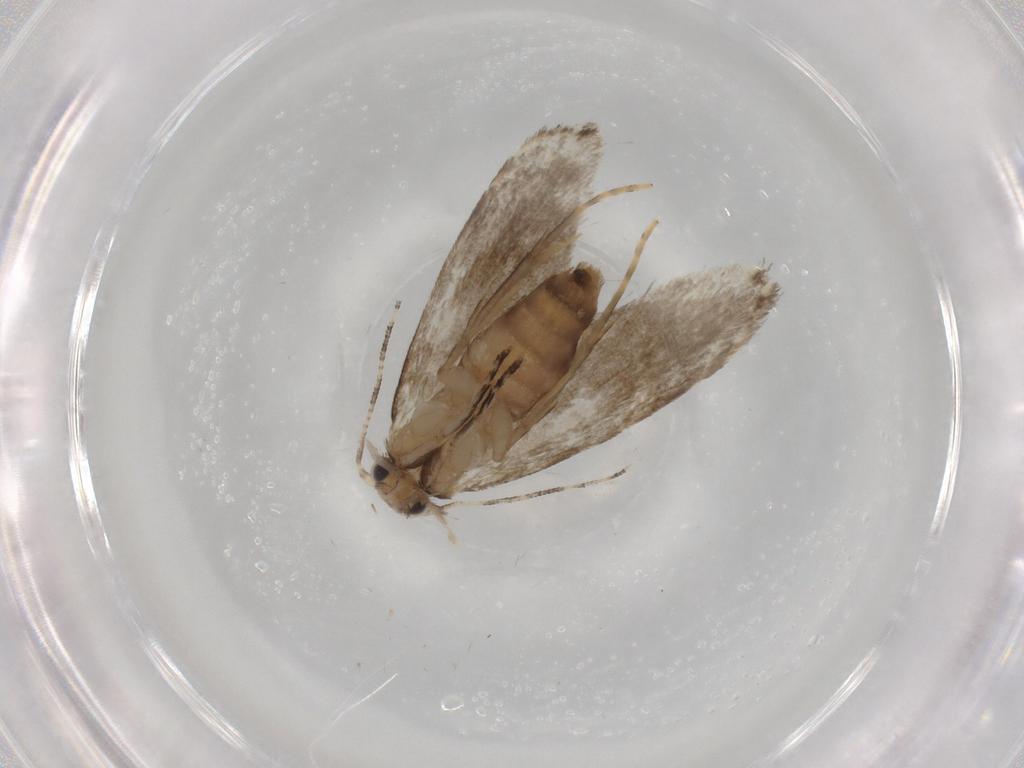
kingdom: Animalia
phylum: Arthropoda
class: Insecta
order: Lepidoptera
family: Tineidae
